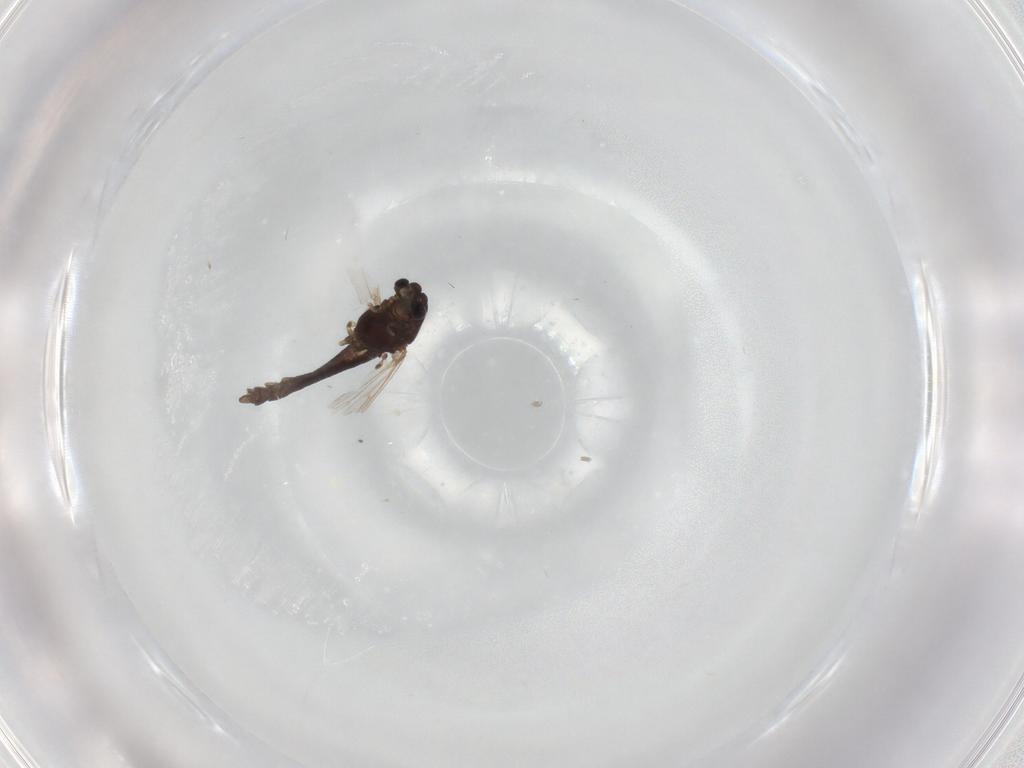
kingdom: Animalia
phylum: Arthropoda
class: Insecta
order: Diptera
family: Chironomidae
